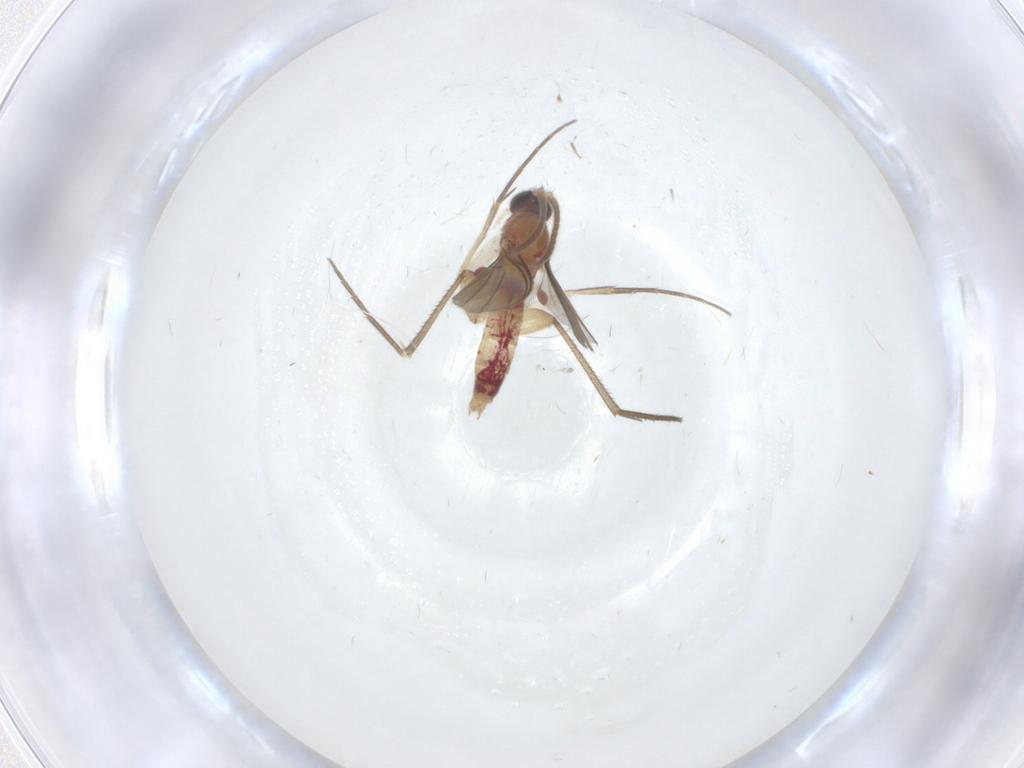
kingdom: Animalia
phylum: Arthropoda
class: Insecta
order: Diptera
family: Mycetophilidae
